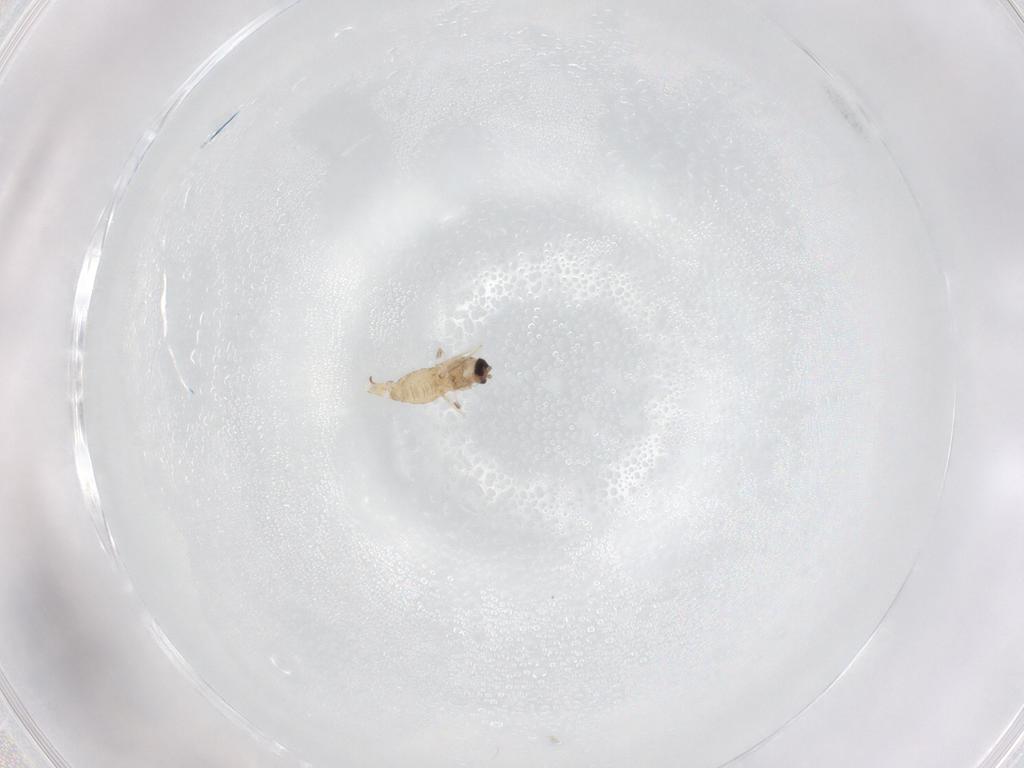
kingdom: Animalia
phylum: Arthropoda
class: Insecta
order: Diptera
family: Cecidomyiidae
